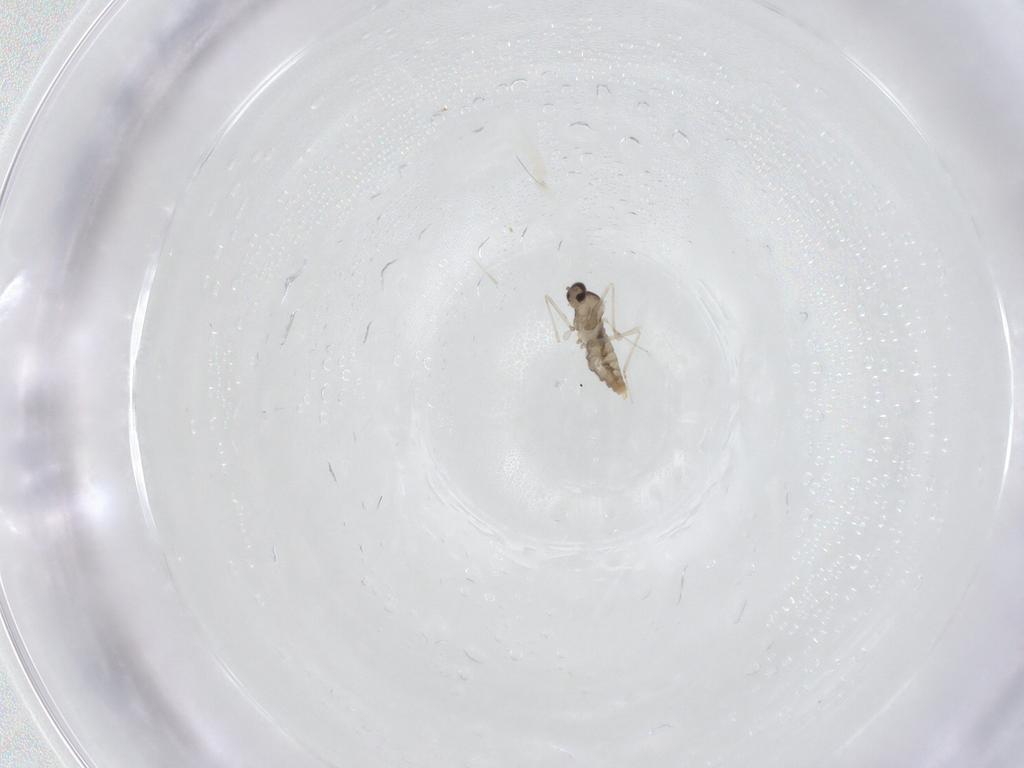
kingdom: Animalia
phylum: Arthropoda
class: Insecta
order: Diptera
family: Cecidomyiidae
